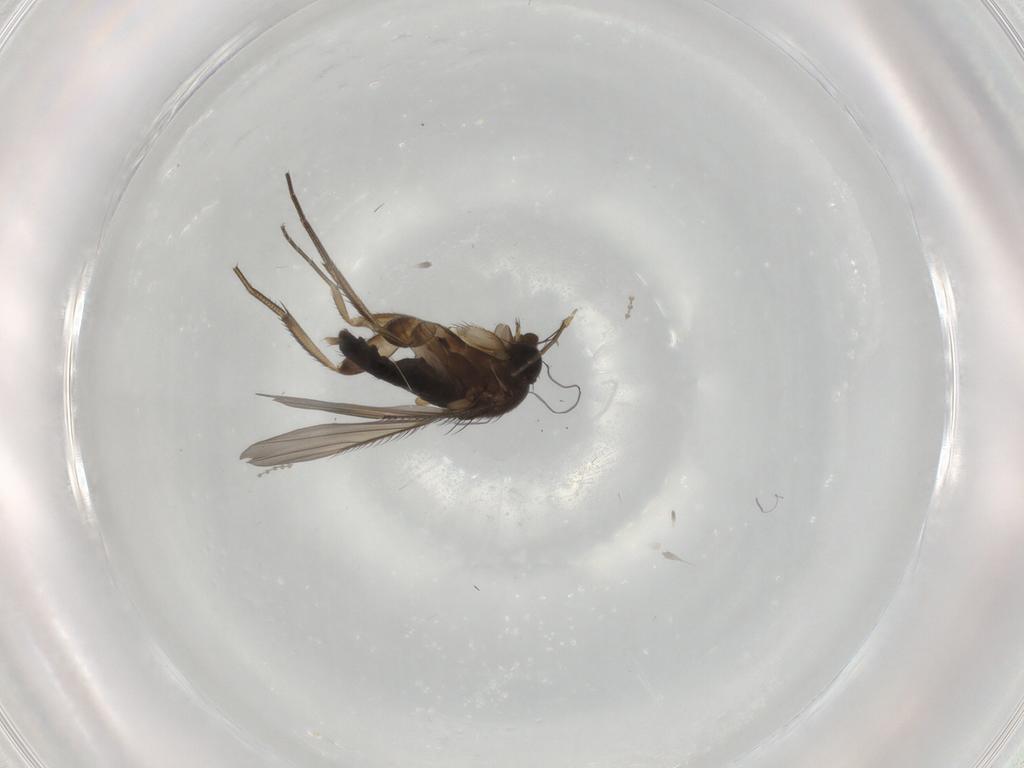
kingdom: Animalia
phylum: Arthropoda
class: Insecta
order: Diptera
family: Phoridae
